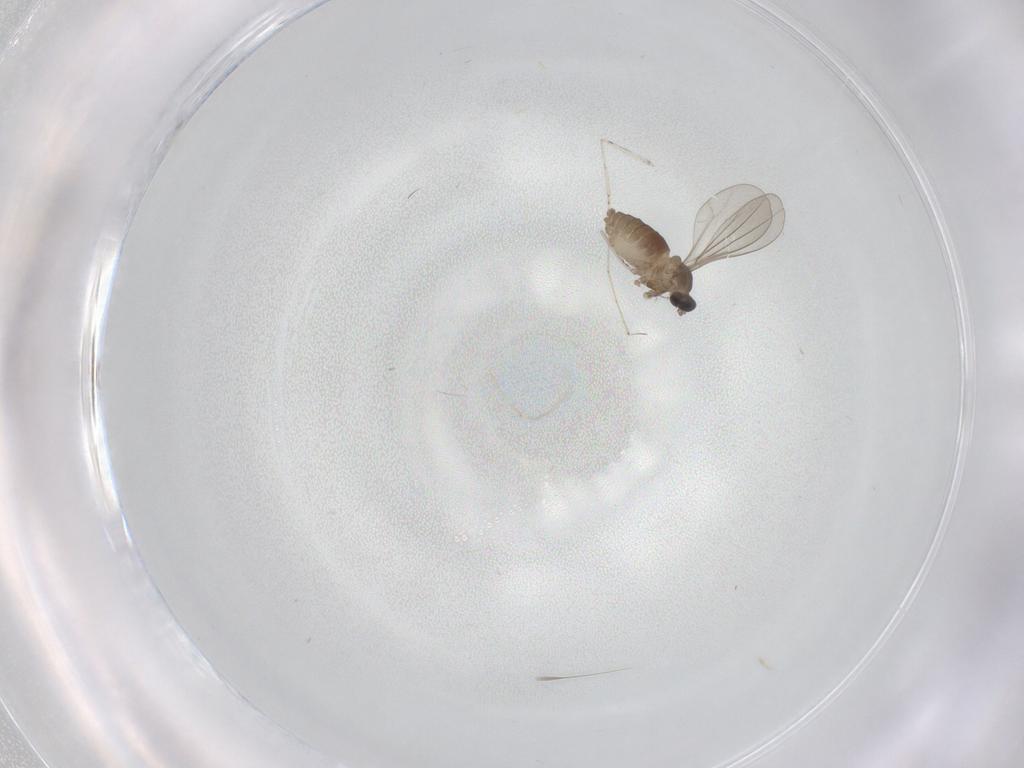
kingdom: Animalia
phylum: Arthropoda
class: Insecta
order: Diptera
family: Cecidomyiidae
